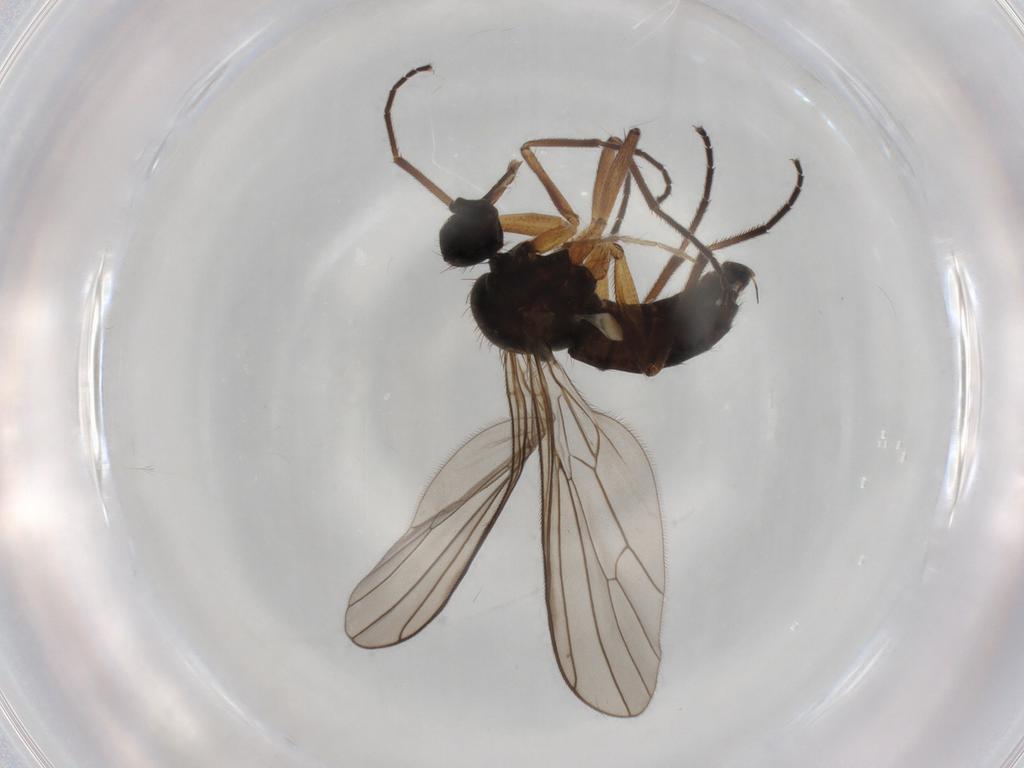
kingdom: Animalia
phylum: Arthropoda
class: Insecta
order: Diptera
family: Empididae
